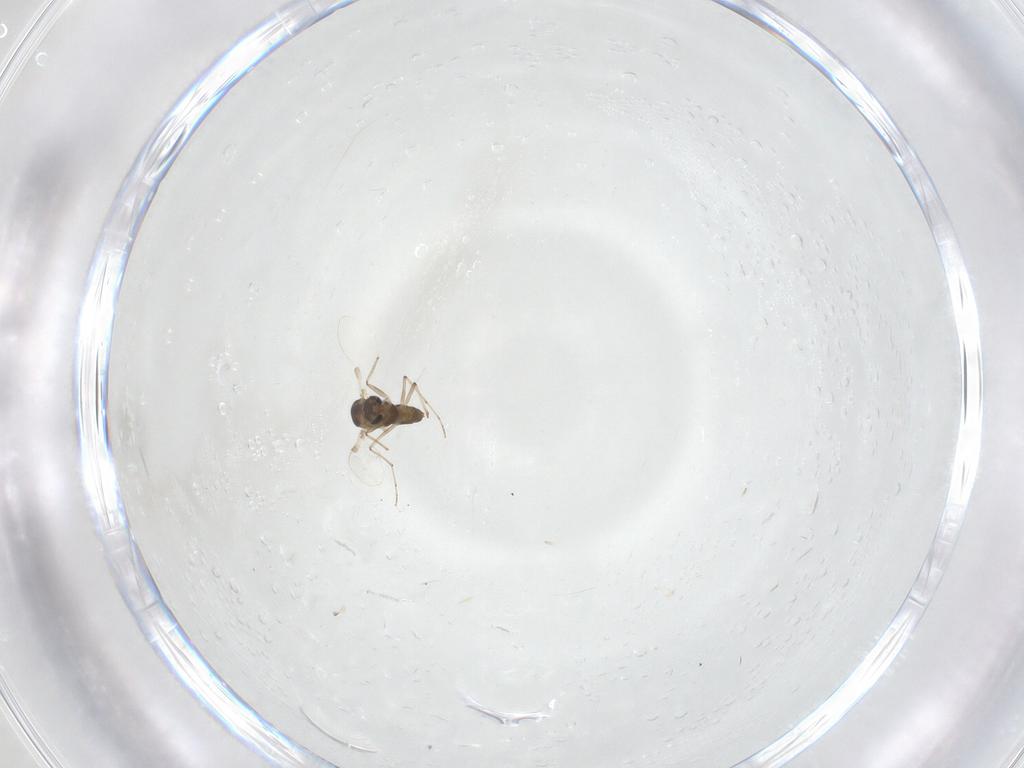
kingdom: Animalia
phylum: Arthropoda
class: Insecta
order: Diptera
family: Chironomidae
